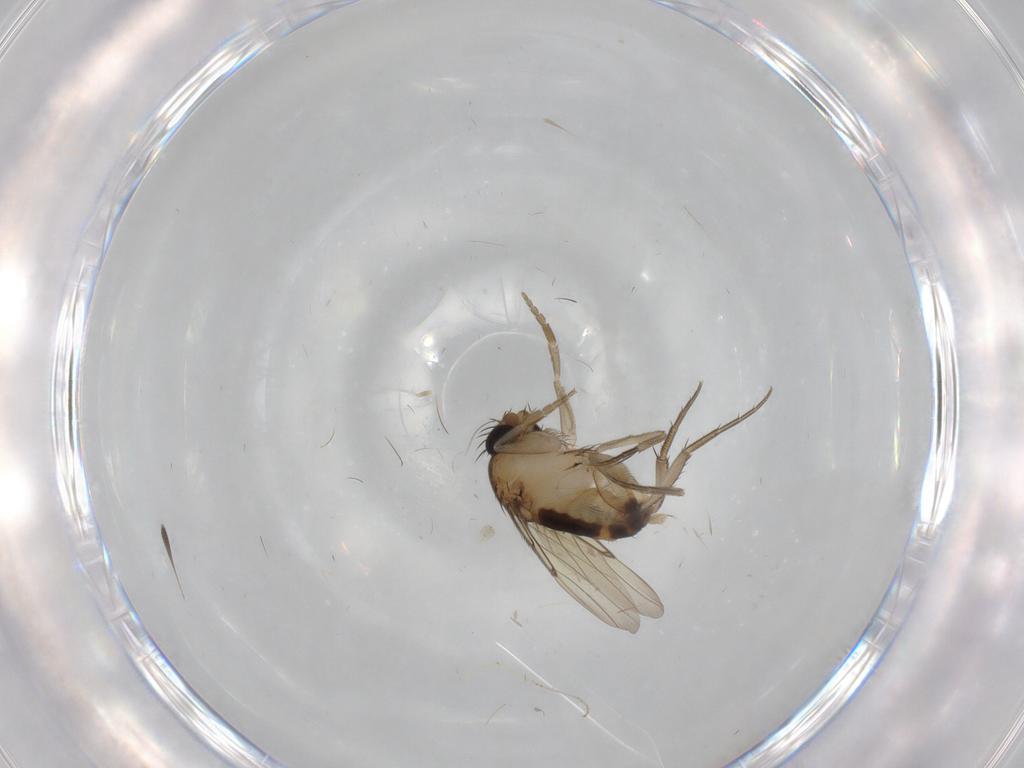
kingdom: Animalia
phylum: Arthropoda
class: Insecta
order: Diptera
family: Phoridae
